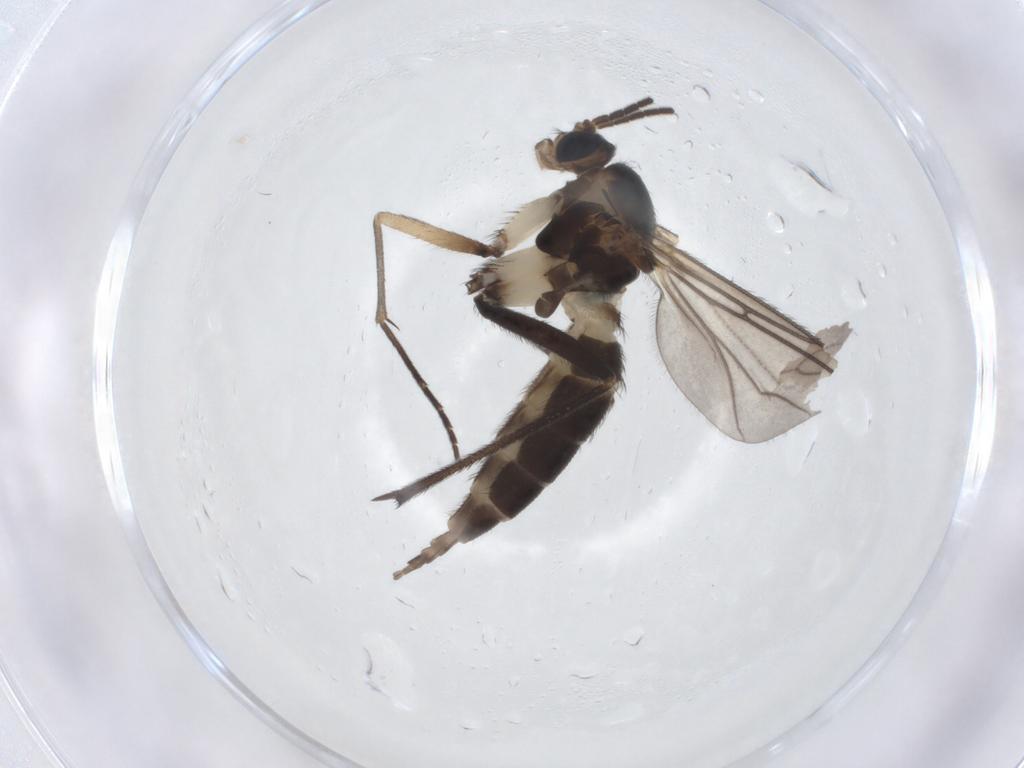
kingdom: Animalia
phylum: Arthropoda
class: Insecta
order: Diptera
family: Sciaridae
